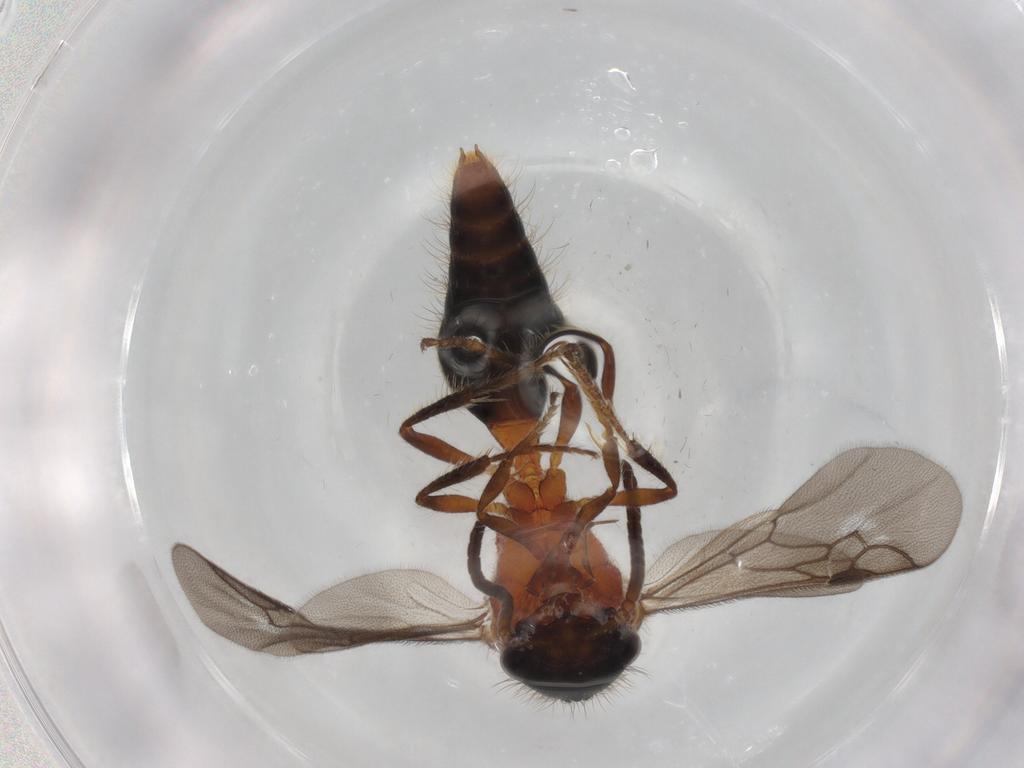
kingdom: Animalia
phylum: Arthropoda
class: Insecta
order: Hymenoptera
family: Mutillidae
